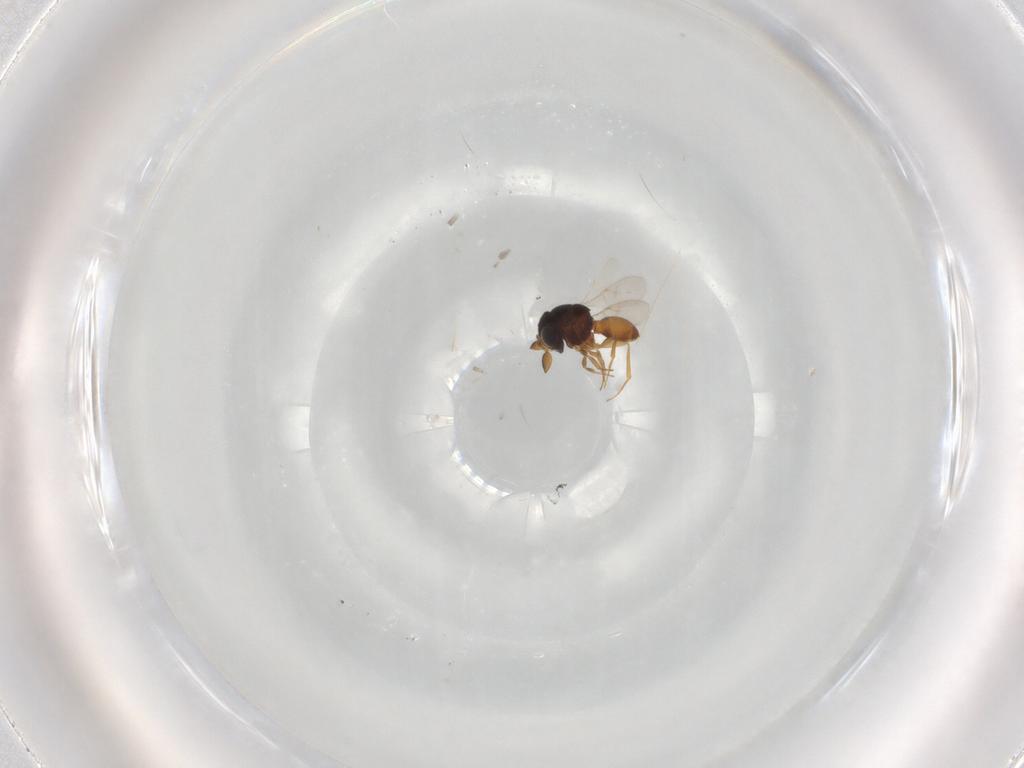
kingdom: Animalia
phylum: Arthropoda
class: Insecta
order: Hymenoptera
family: Scelionidae
